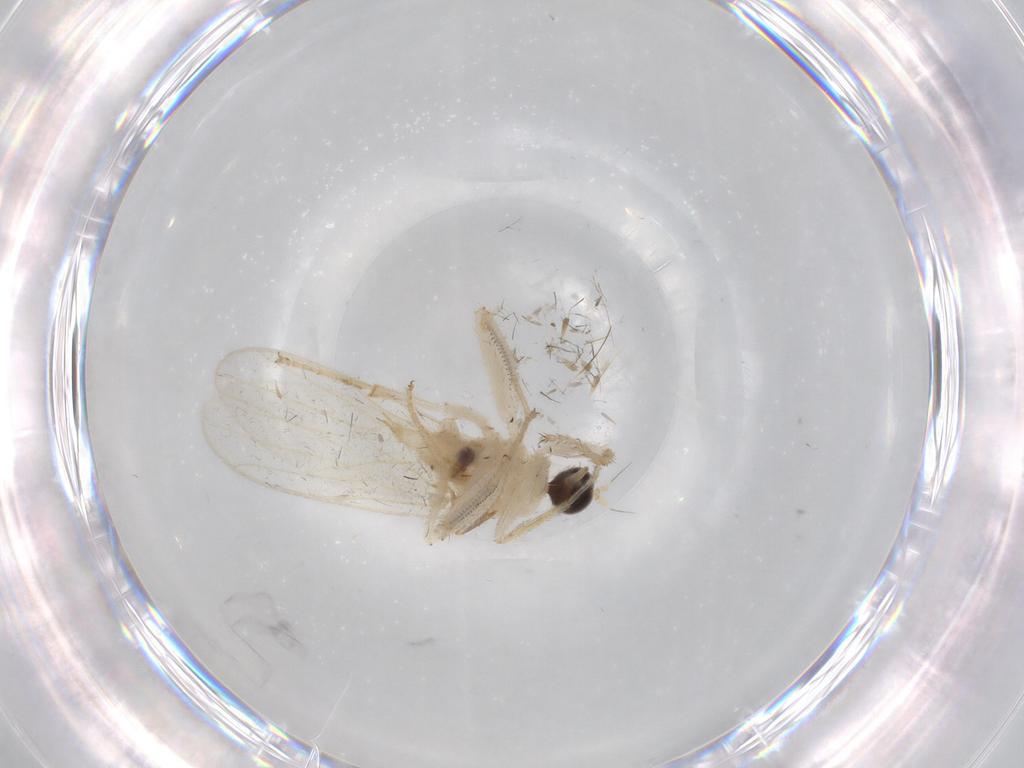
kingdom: Animalia
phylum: Arthropoda
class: Insecta
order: Diptera
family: Hybotidae
